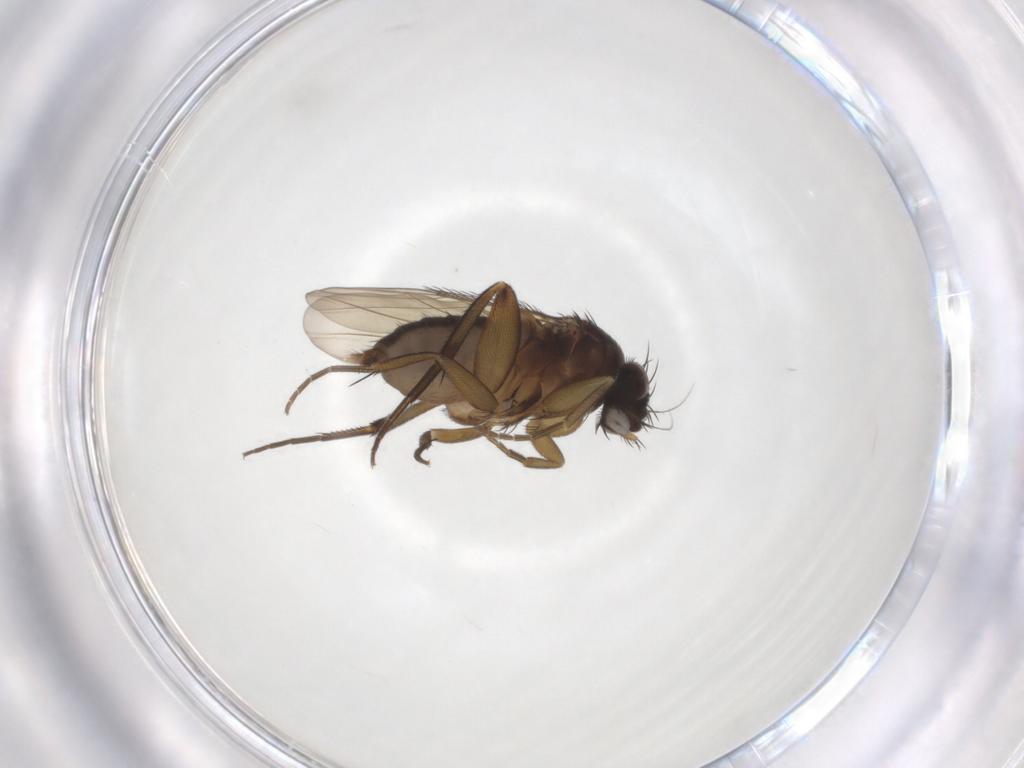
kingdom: Animalia
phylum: Arthropoda
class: Insecta
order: Diptera
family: Phoridae
